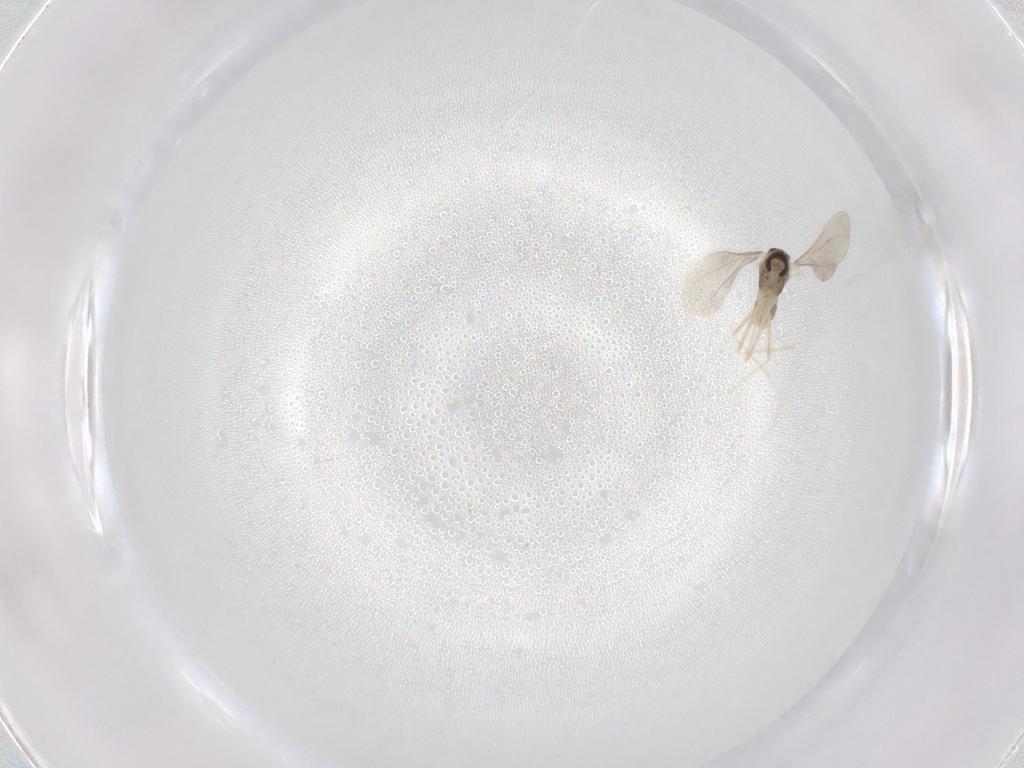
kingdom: Animalia
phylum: Arthropoda
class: Insecta
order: Diptera
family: Cecidomyiidae
